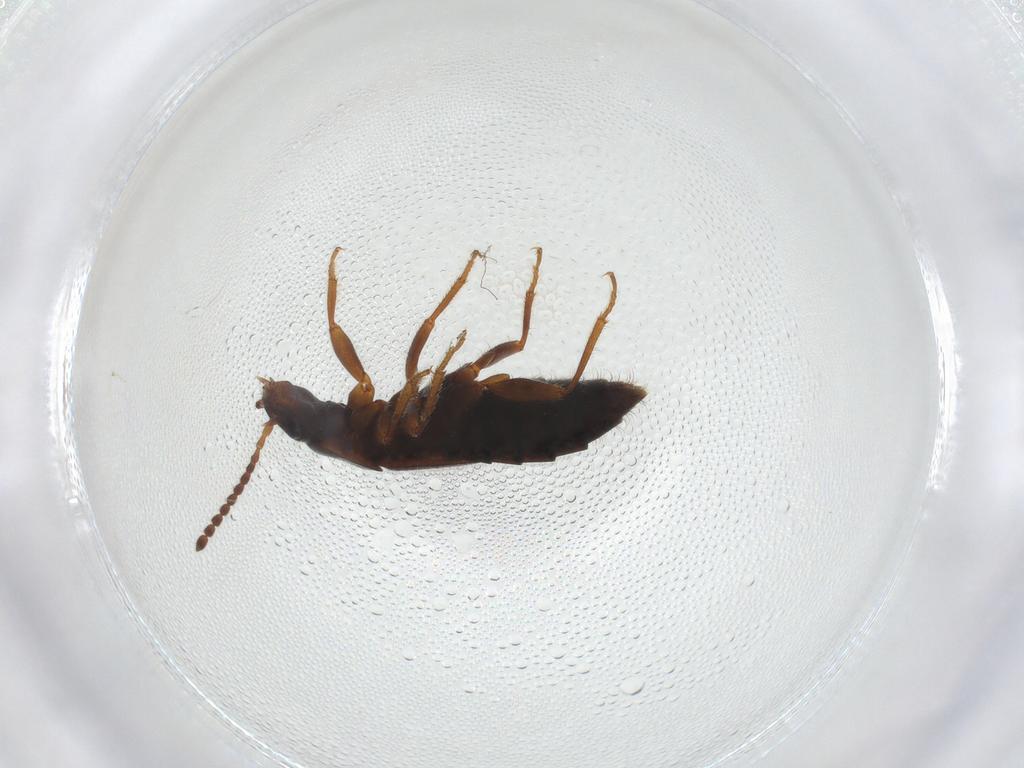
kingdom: Animalia
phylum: Arthropoda
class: Insecta
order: Coleoptera
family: Staphylinidae
